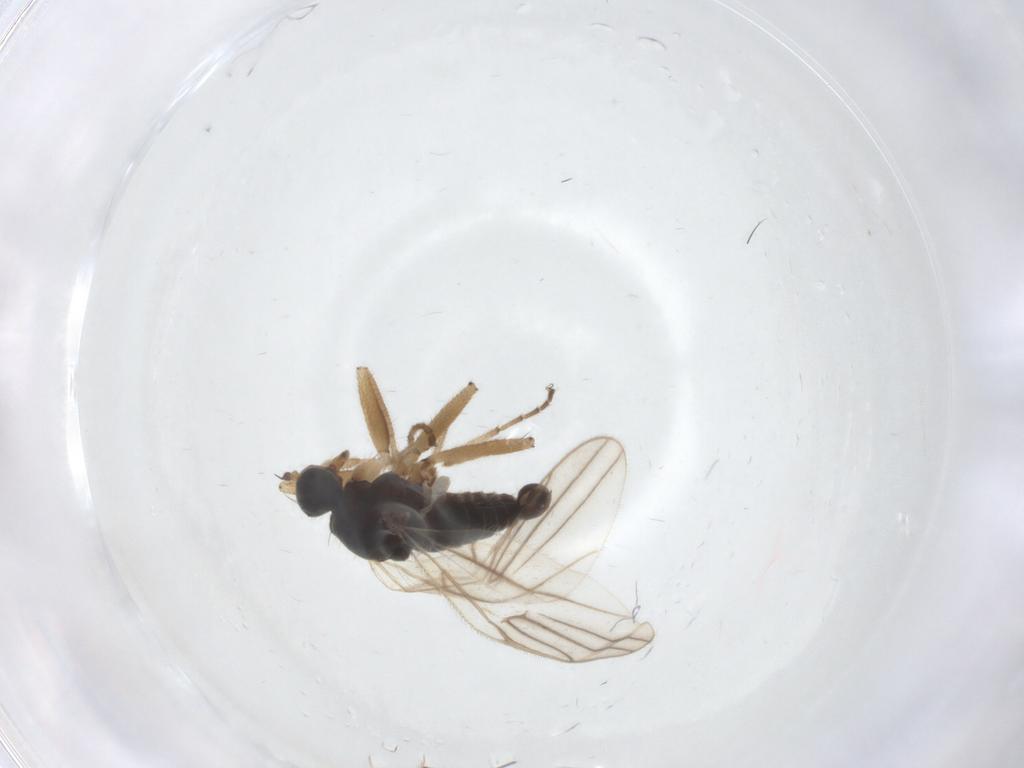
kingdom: Animalia
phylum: Arthropoda
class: Insecta
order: Diptera
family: Hybotidae
